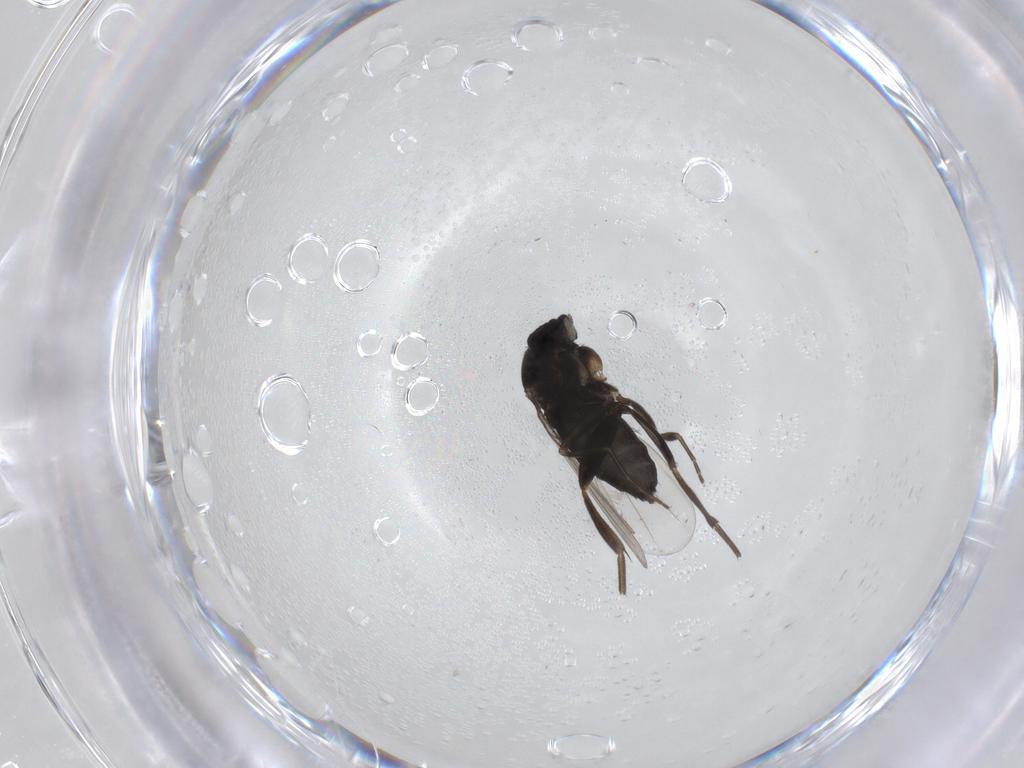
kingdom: Animalia
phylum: Arthropoda
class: Insecta
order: Diptera
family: Chironomidae
